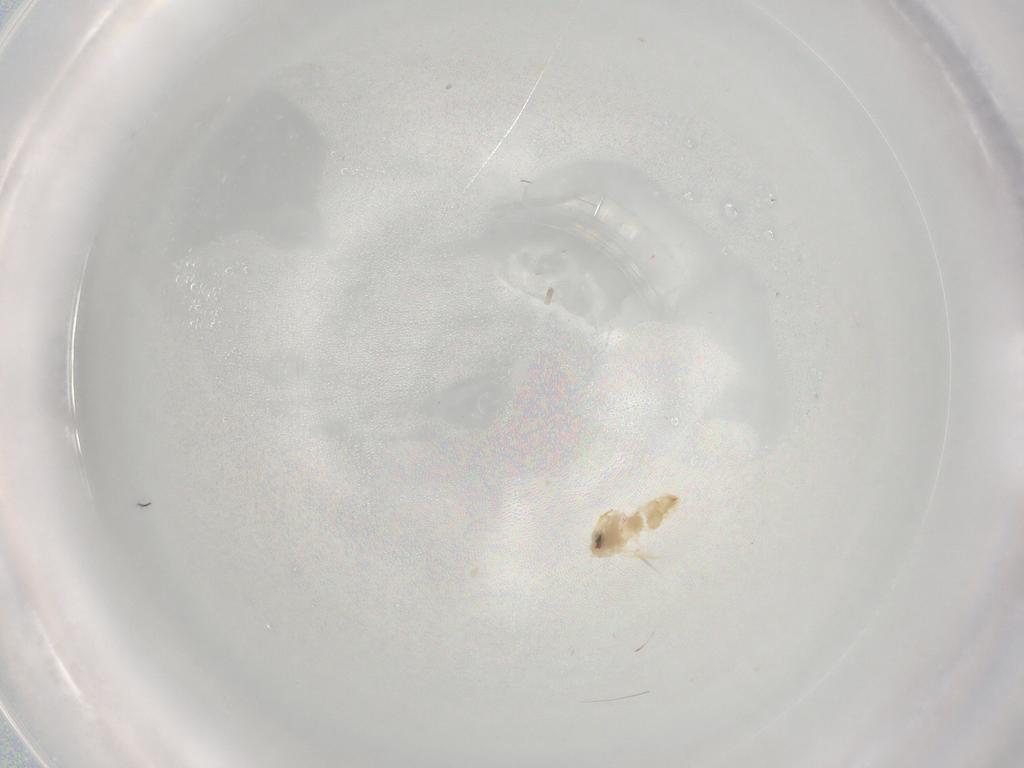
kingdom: Animalia
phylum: Arthropoda
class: Insecta
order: Hemiptera
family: Aleyrodidae
